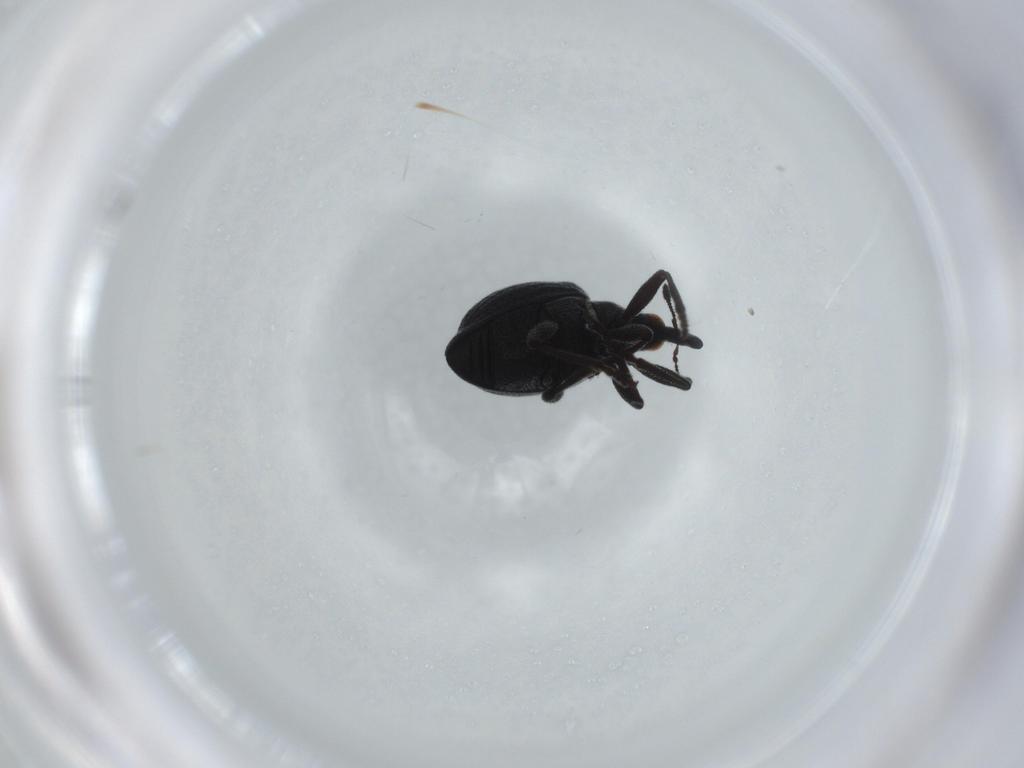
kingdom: Animalia
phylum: Arthropoda
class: Insecta
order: Coleoptera
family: Brentidae
